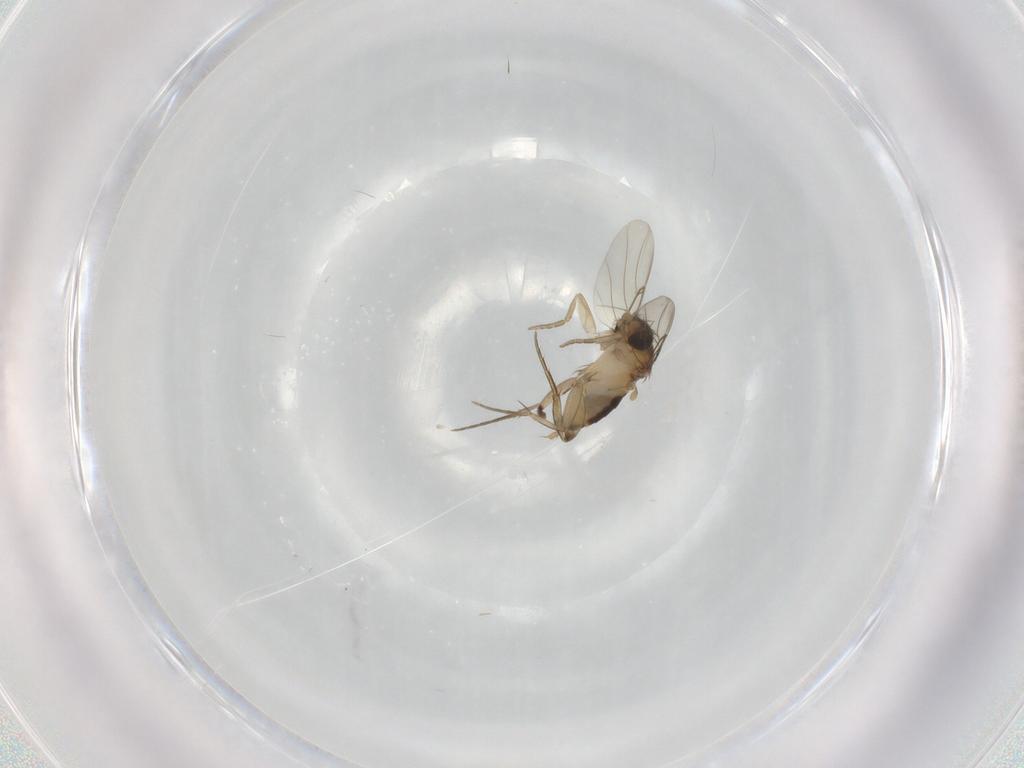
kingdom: Animalia
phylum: Arthropoda
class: Insecta
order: Diptera
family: Phoridae
